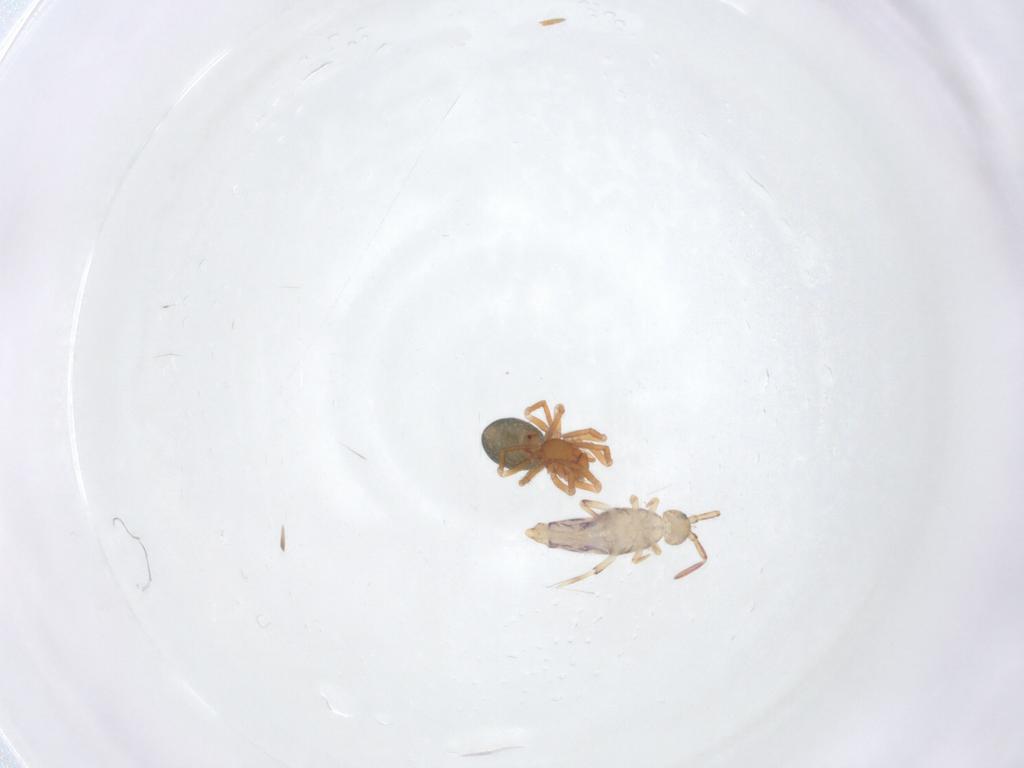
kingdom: Animalia
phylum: Arthropoda
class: Collembola
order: Entomobryomorpha
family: Entomobryidae
